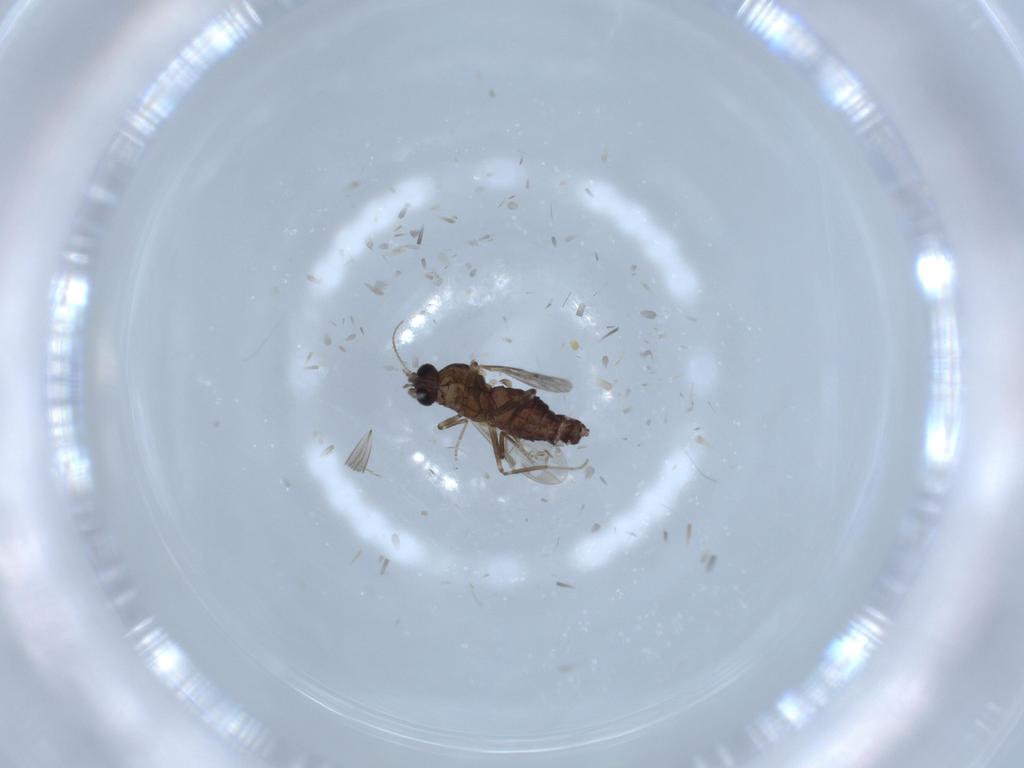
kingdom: Animalia
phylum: Arthropoda
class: Insecta
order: Diptera
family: Ceratopogonidae
